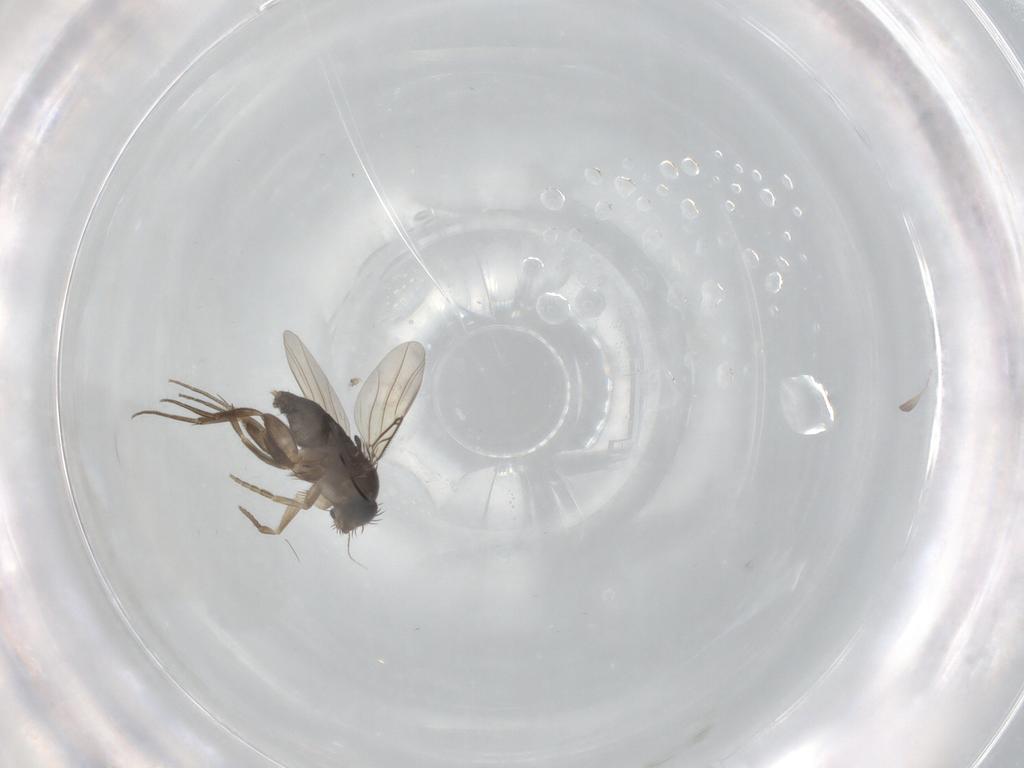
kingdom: Animalia
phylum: Arthropoda
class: Insecta
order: Diptera
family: Phoridae
